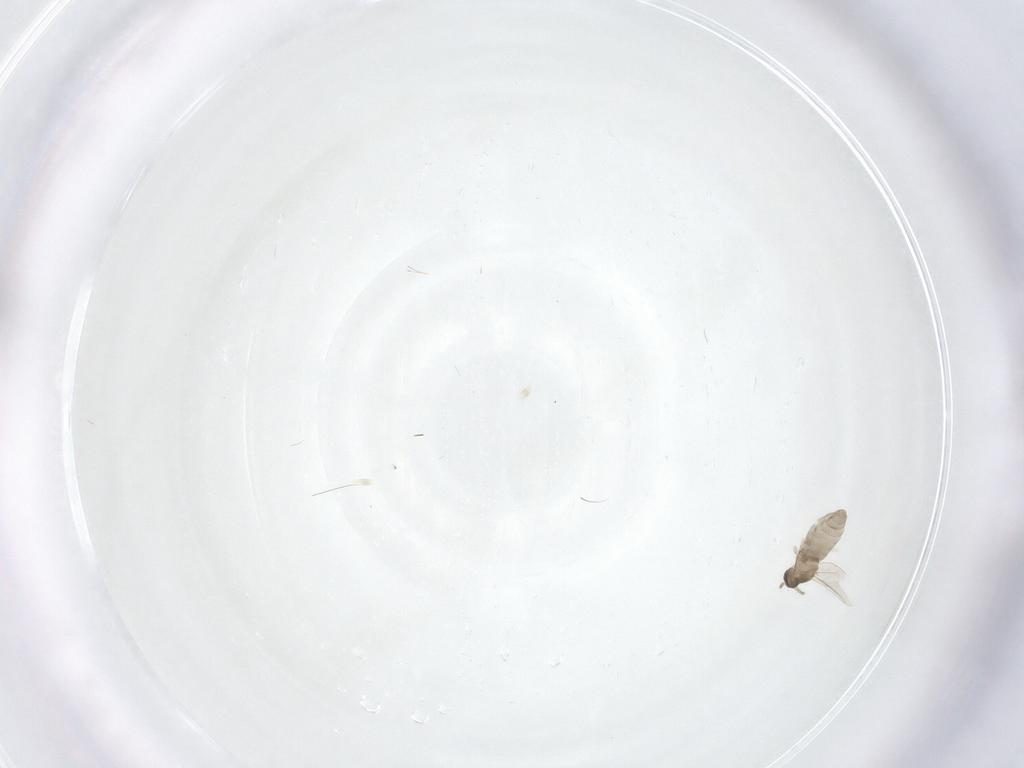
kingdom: Animalia
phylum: Arthropoda
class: Insecta
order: Diptera
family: Cecidomyiidae
